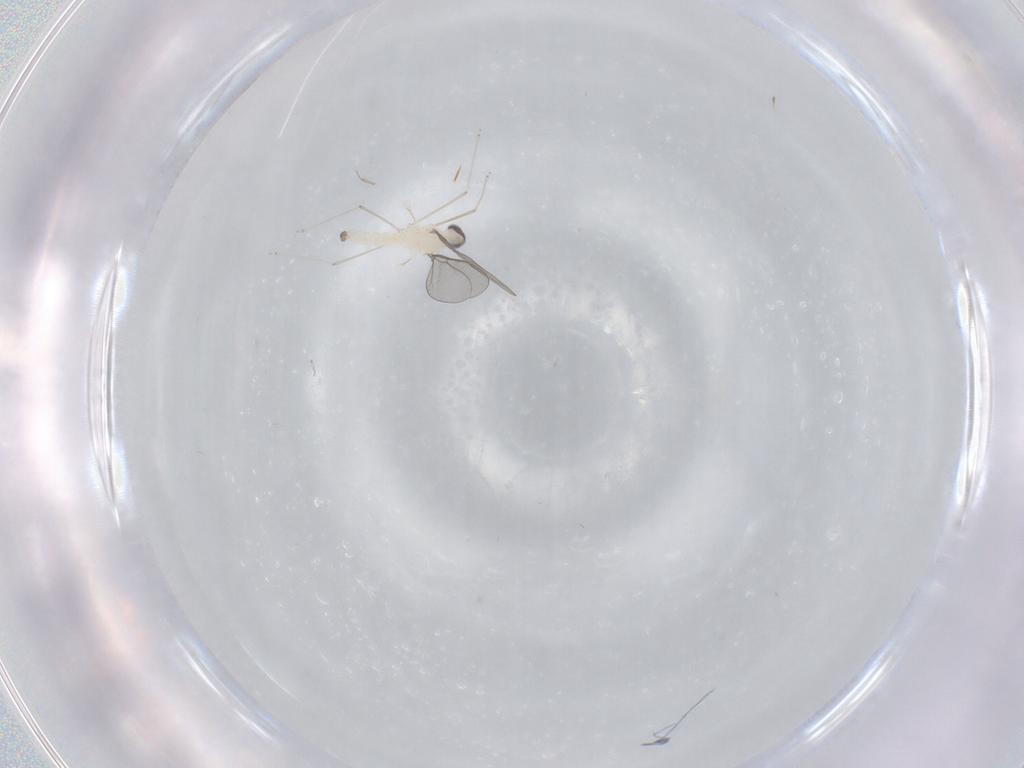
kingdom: Animalia
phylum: Arthropoda
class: Insecta
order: Diptera
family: Cecidomyiidae
